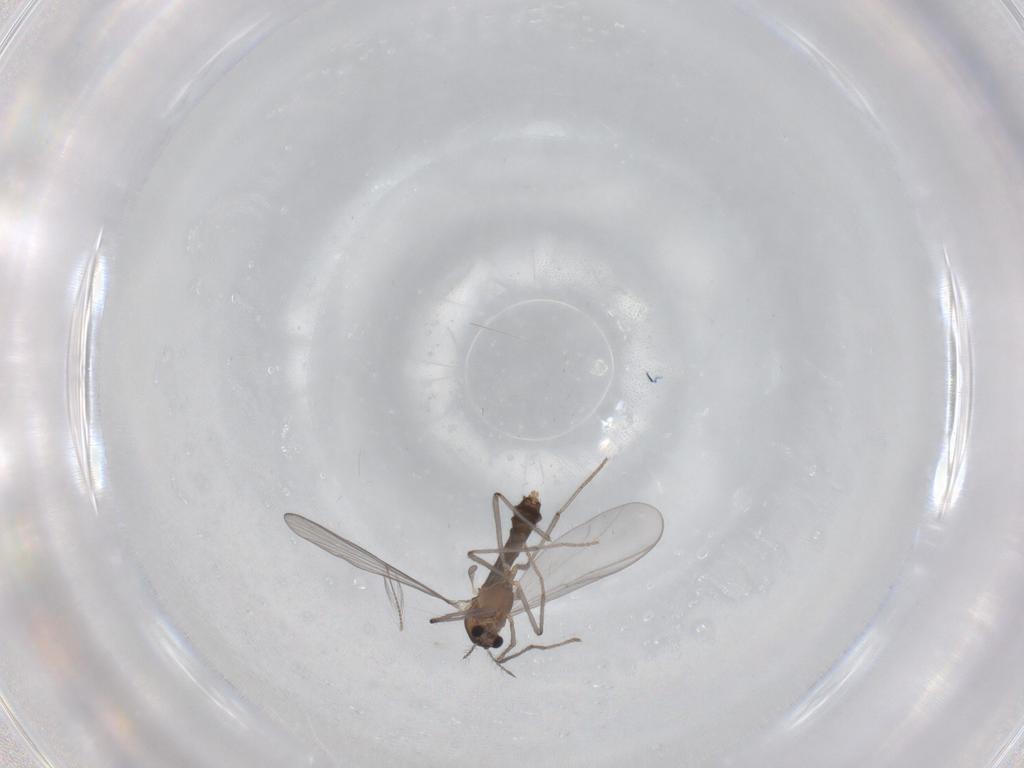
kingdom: Animalia
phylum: Arthropoda
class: Insecta
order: Diptera
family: Chironomidae
